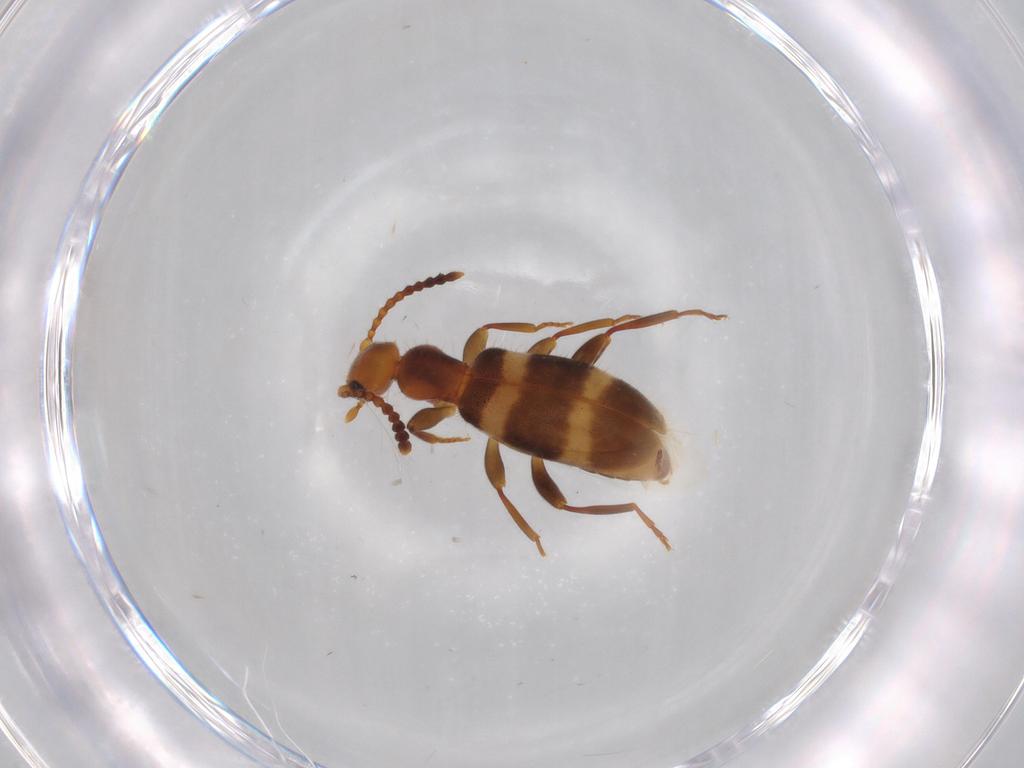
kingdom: Animalia
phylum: Arthropoda
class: Insecta
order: Coleoptera
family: Anthicidae
